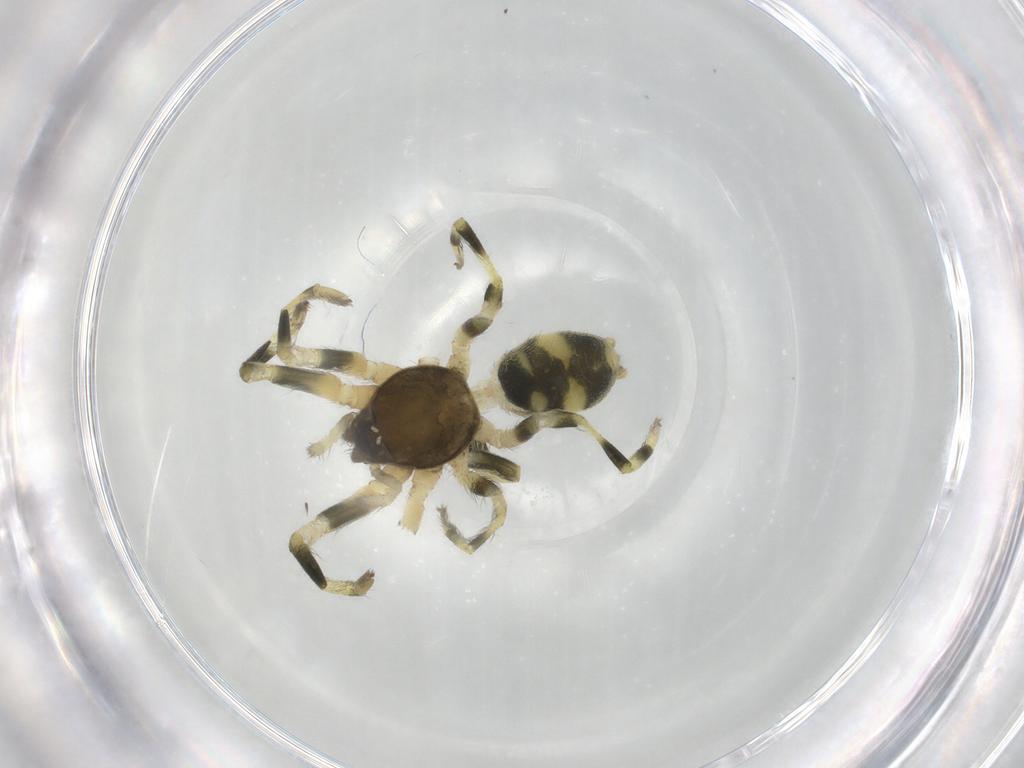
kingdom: Animalia
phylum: Arthropoda
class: Arachnida
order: Araneae
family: Lamponidae
